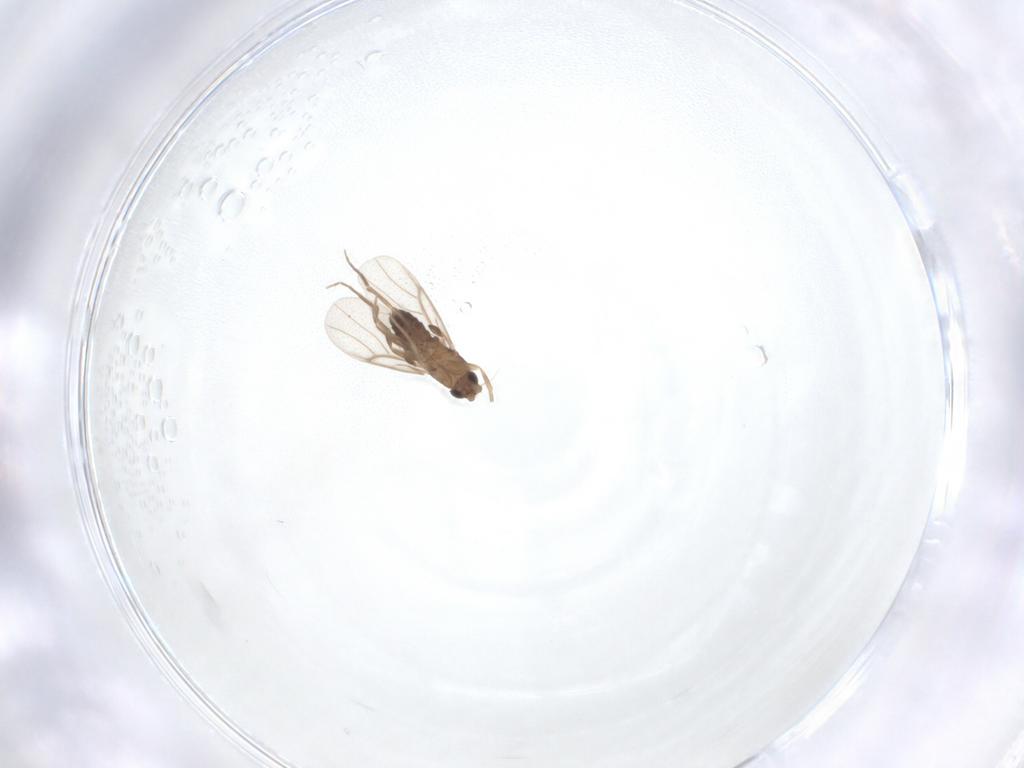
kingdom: Animalia
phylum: Arthropoda
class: Insecta
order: Diptera
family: Phoridae
